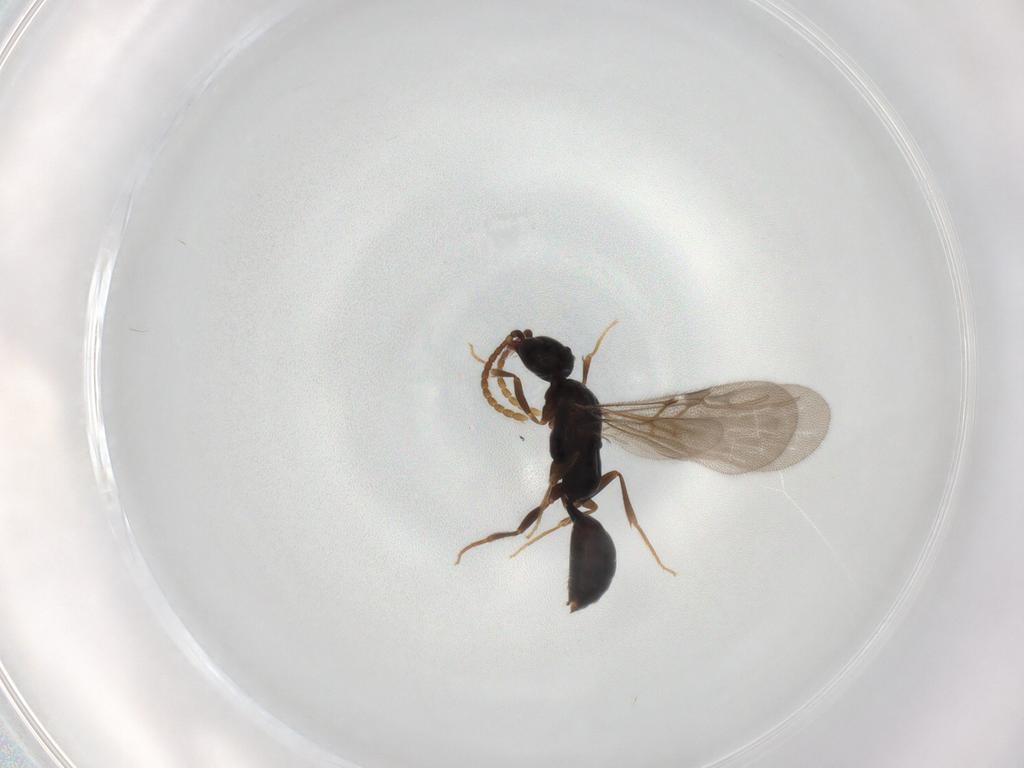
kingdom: Animalia
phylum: Arthropoda
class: Insecta
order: Hymenoptera
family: Bethylidae
